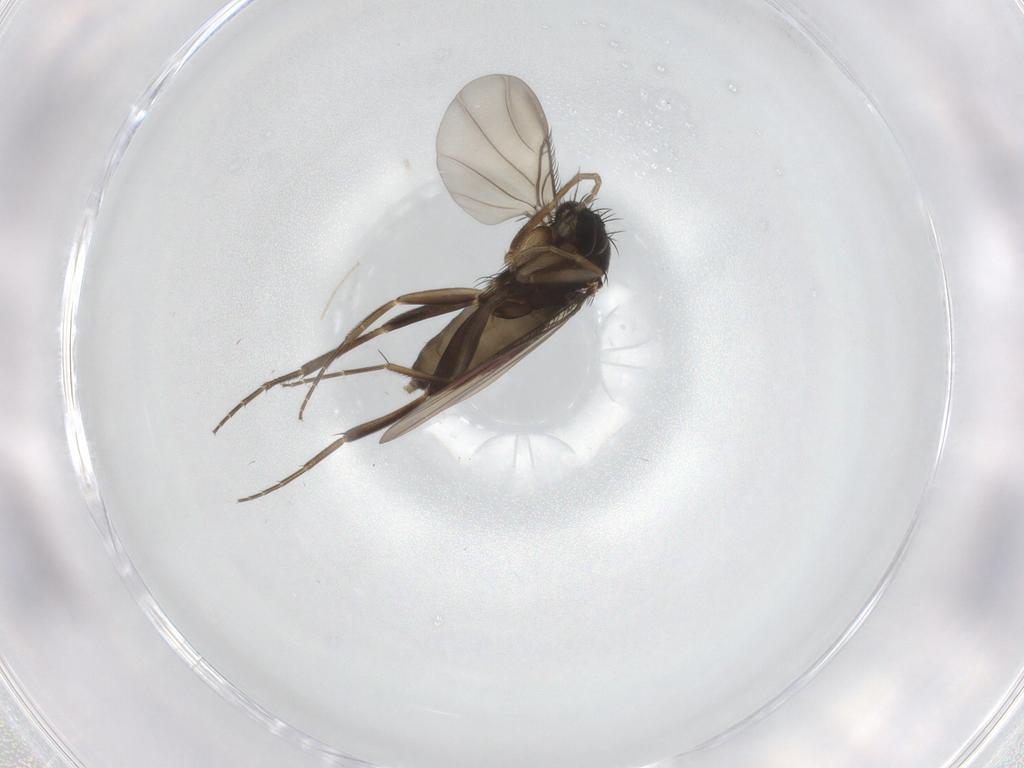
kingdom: Animalia
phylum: Arthropoda
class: Insecta
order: Diptera
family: Phoridae
